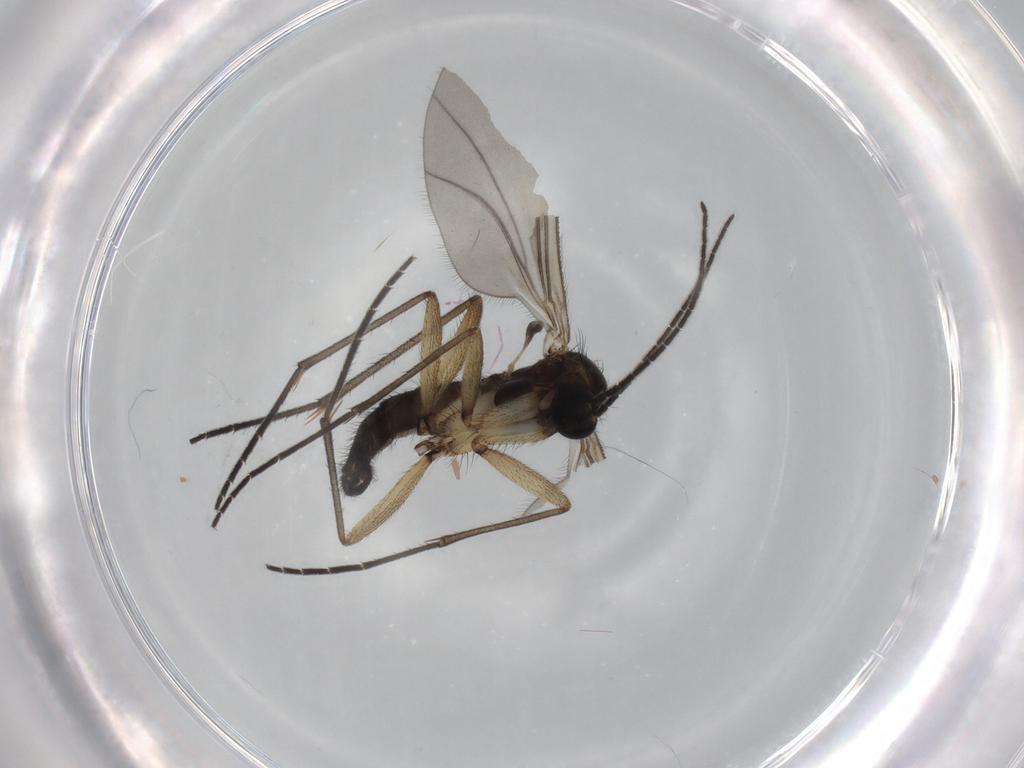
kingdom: Animalia
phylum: Arthropoda
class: Insecta
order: Diptera
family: Sciaridae
